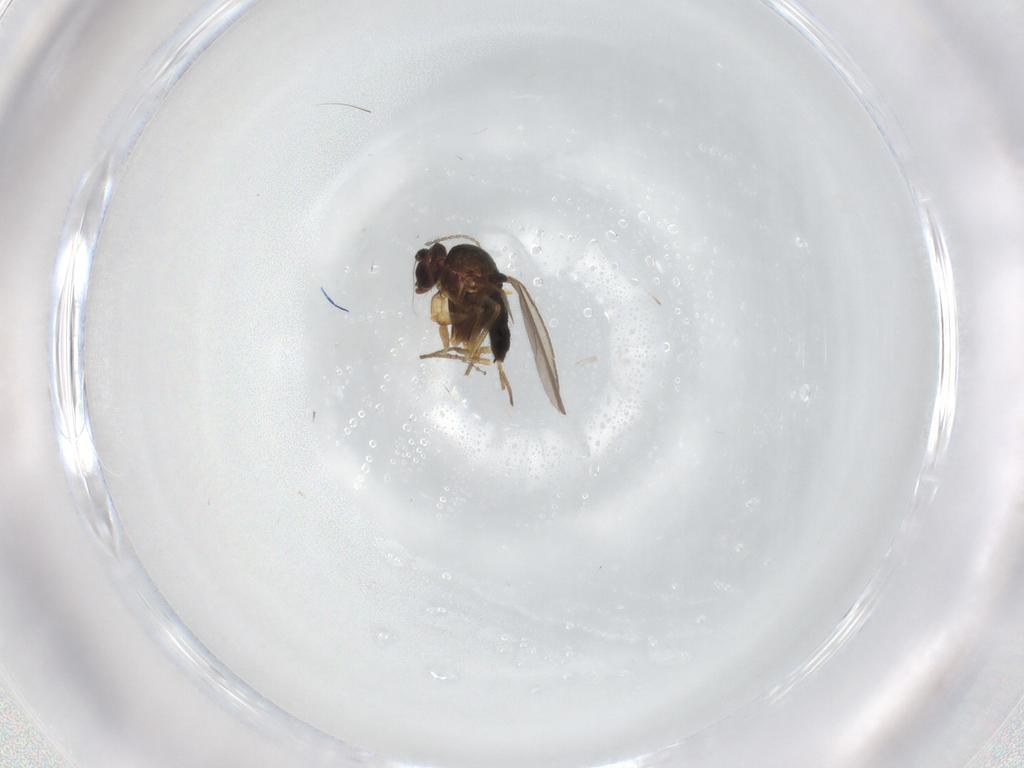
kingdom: Animalia
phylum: Arthropoda
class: Insecta
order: Diptera
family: Cecidomyiidae
